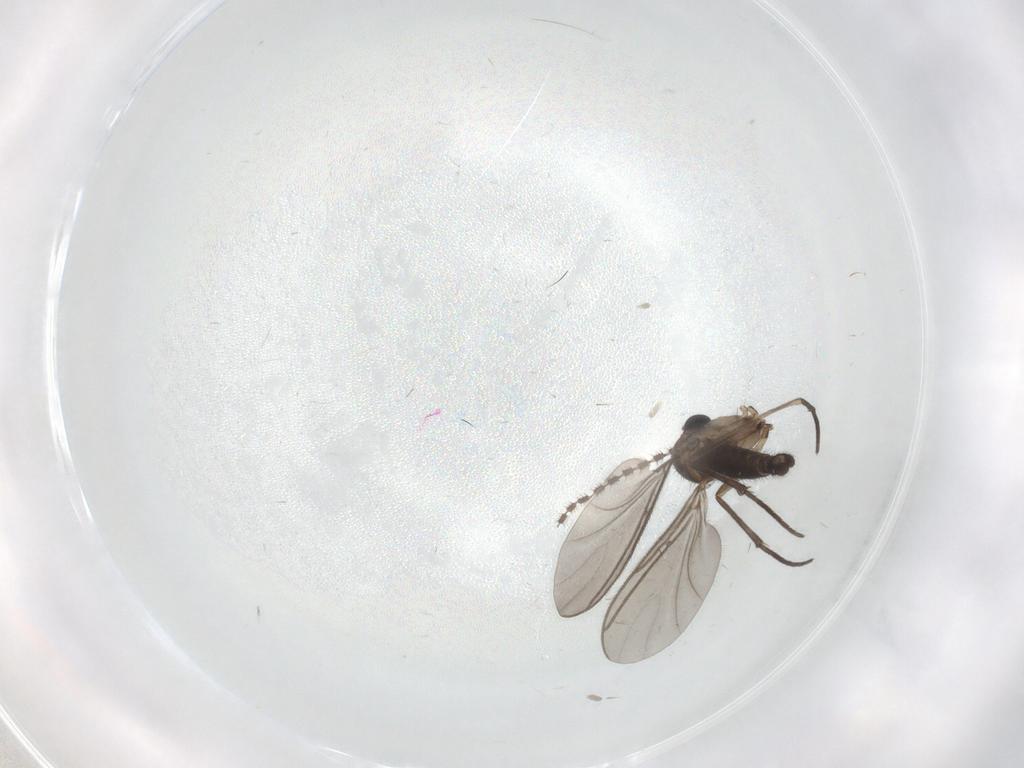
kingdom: Animalia
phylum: Arthropoda
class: Insecta
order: Diptera
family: Sciaridae
